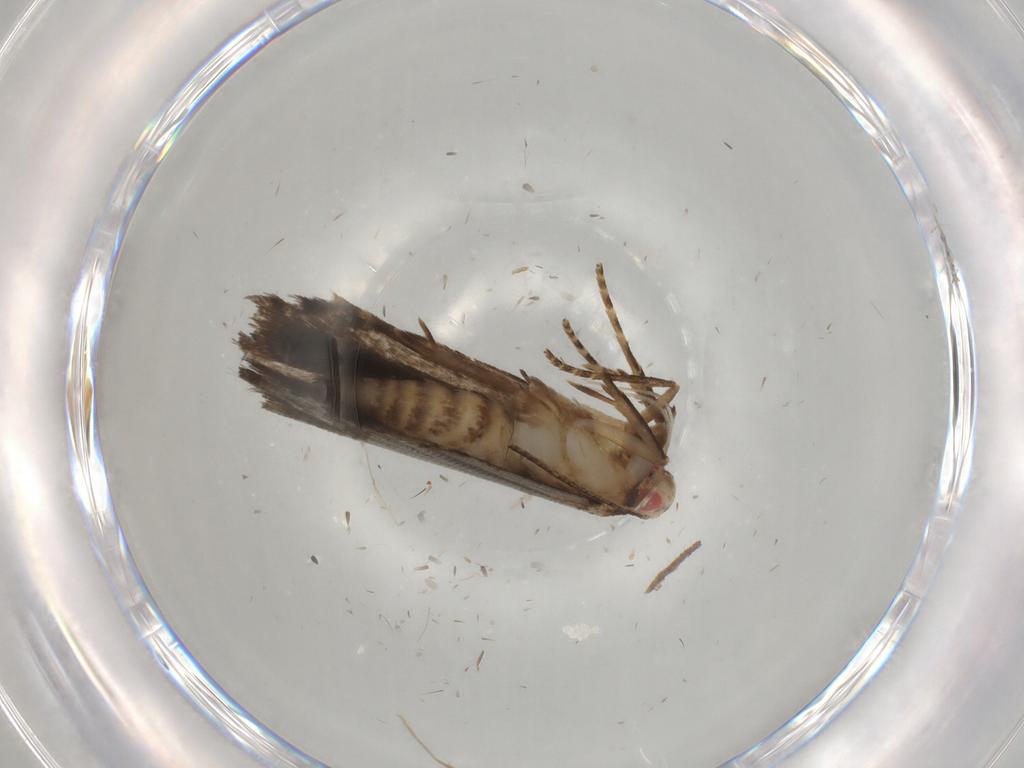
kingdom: Animalia
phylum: Arthropoda
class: Insecta
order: Lepidoptera
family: Gelechiidae
